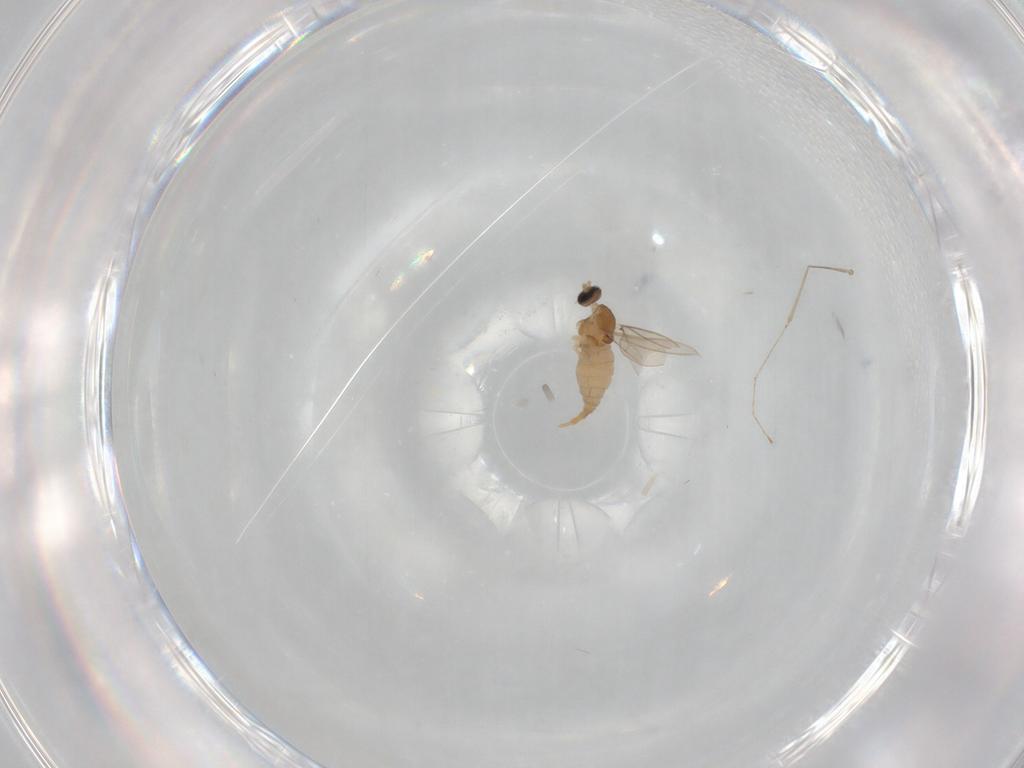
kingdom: Animalia
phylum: Arthropoda
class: Insecta
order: Diptera
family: Cecidomyiidae
